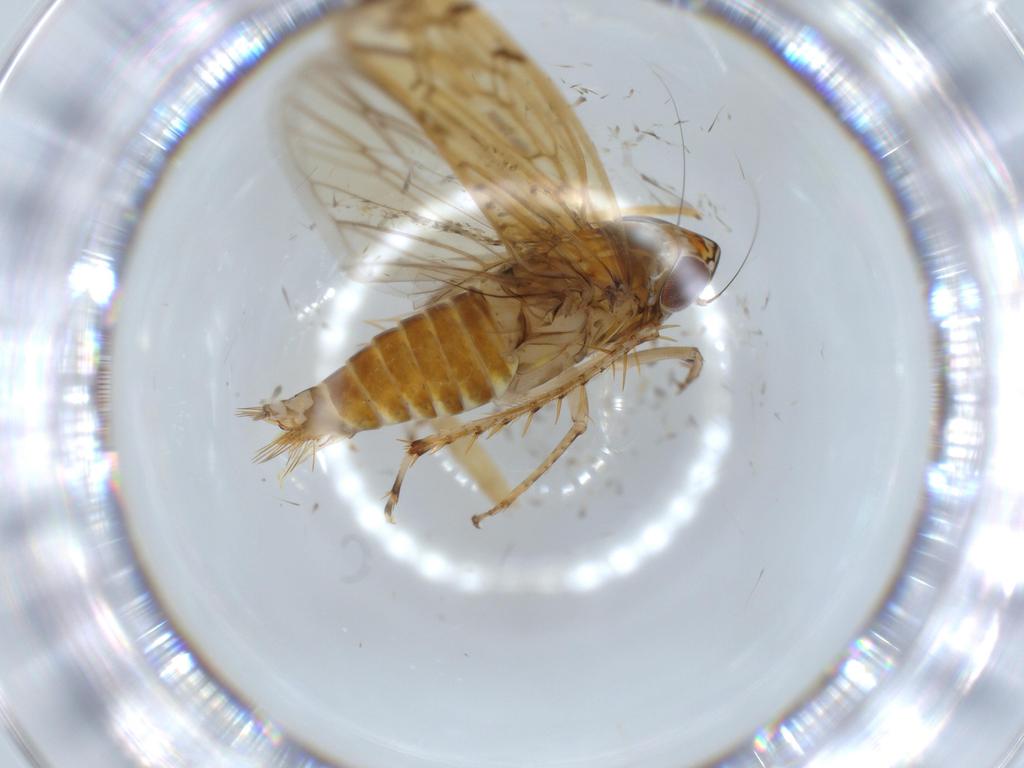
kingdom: Animalia
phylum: Arthropoda
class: Insecta
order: Hemiptera
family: Cicadellidae
